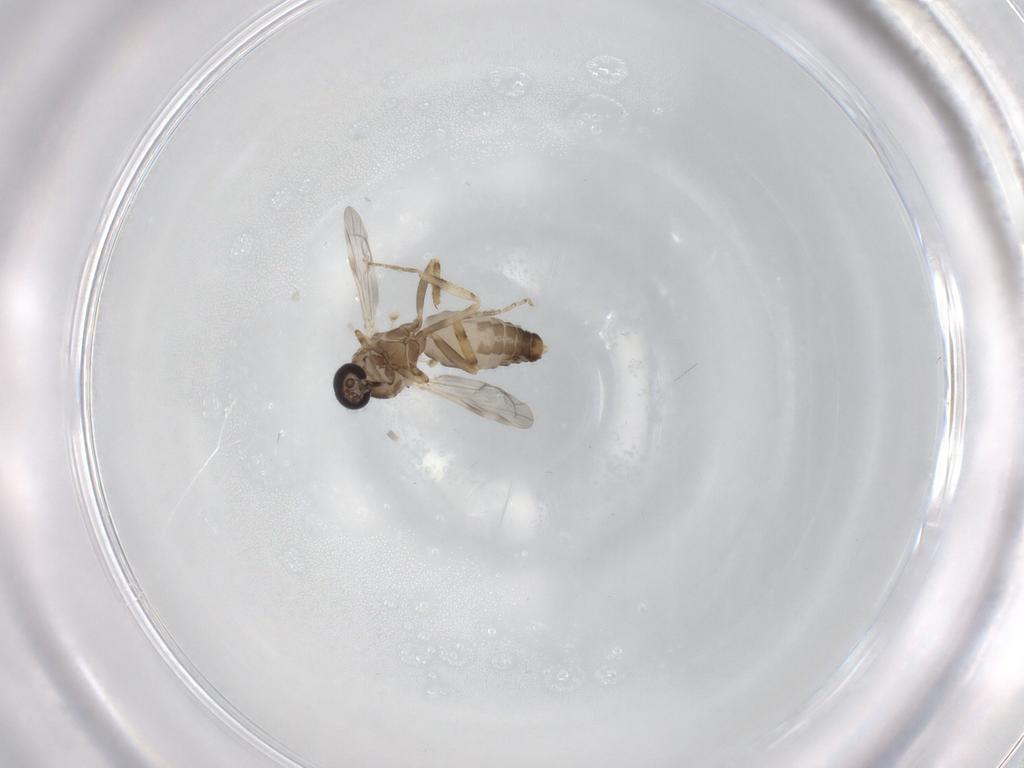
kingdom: Animalia
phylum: Arthropoda
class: Insecta
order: Diptera
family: Ceratopogonidae
